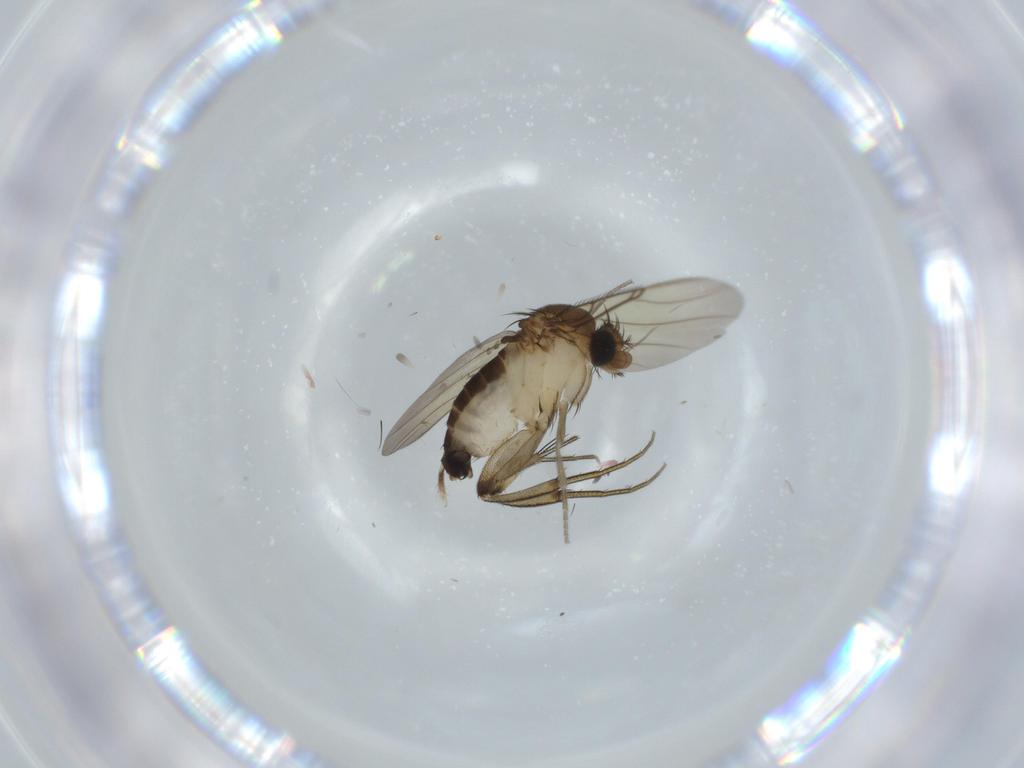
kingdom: Animalia
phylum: Arthropoda
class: Insecta
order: Diptera
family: Phoridae
